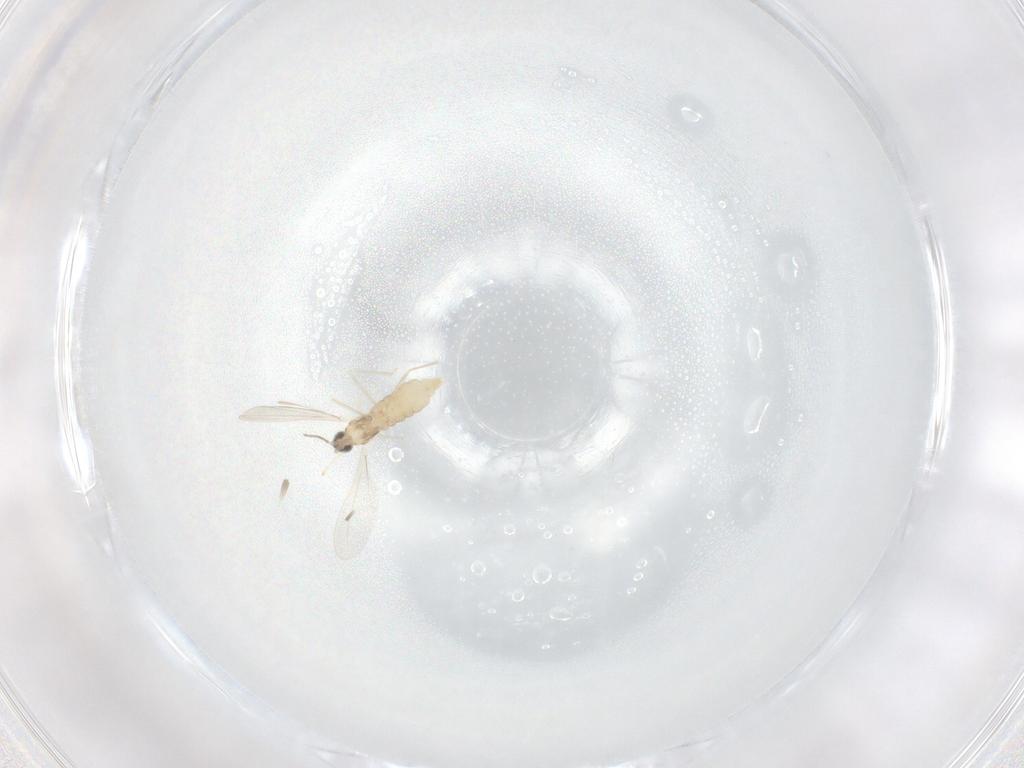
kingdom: Animalia
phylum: Arthropoda
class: Insecta
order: Diptera
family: Cecidomyiidae
